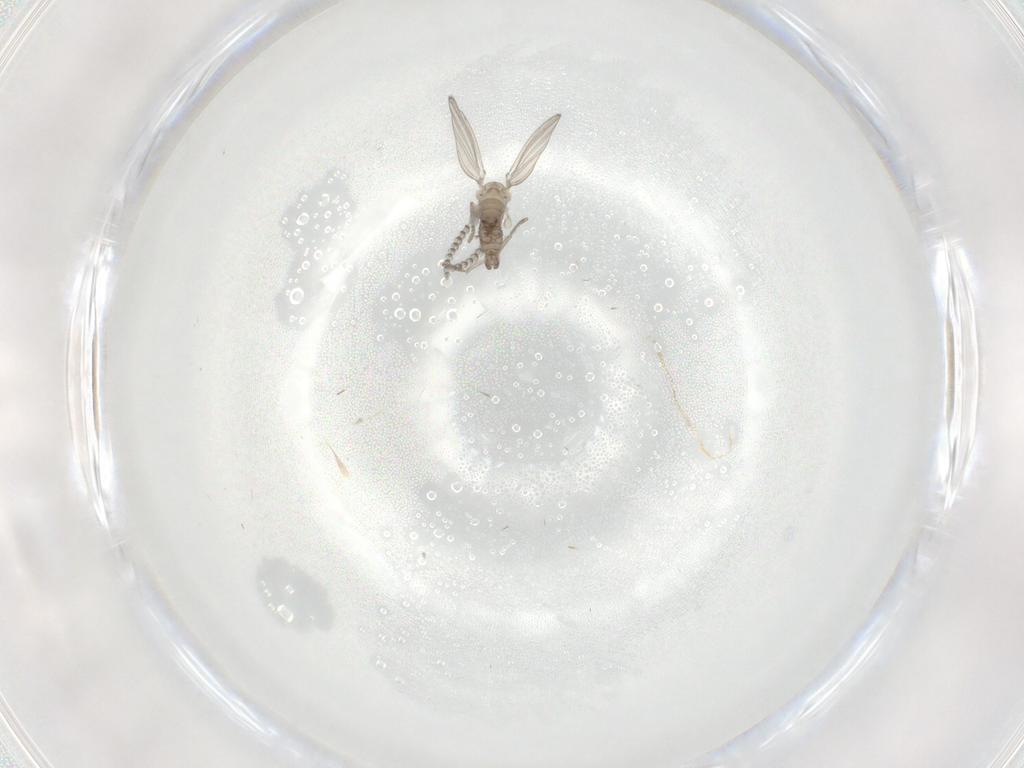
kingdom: Animalia
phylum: Arthropoda
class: Insecta
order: Diptera
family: Psychodidae
